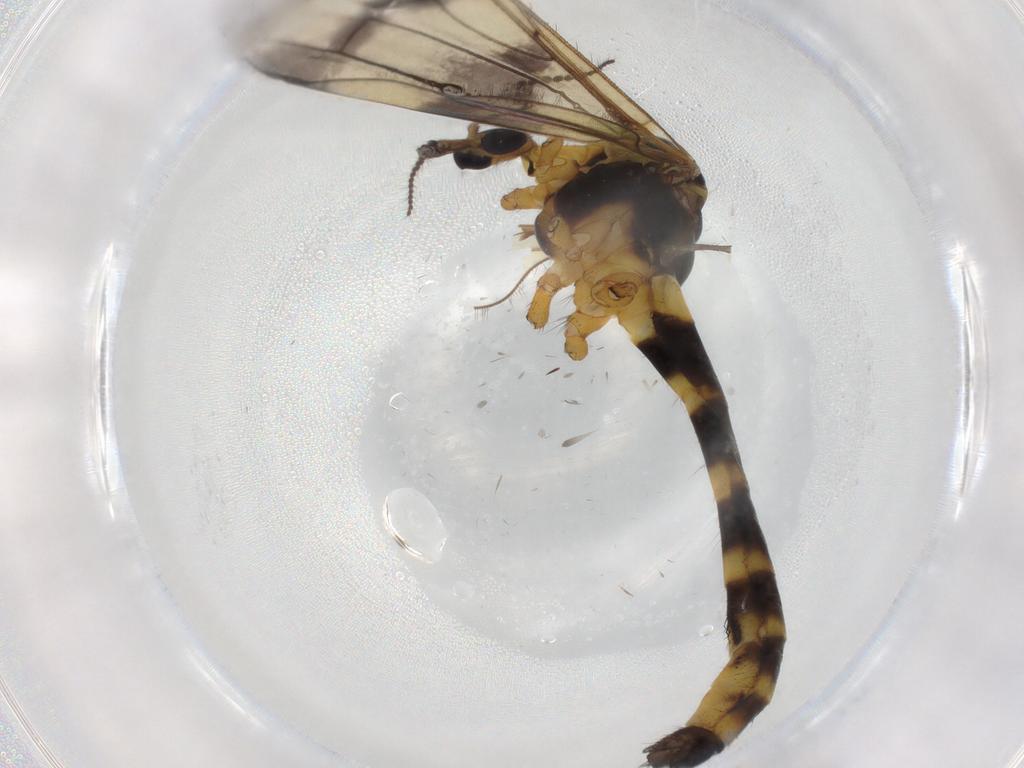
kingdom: Animalia
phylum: Arthropoda
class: Insecta
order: Diptera
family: Limoniidae
